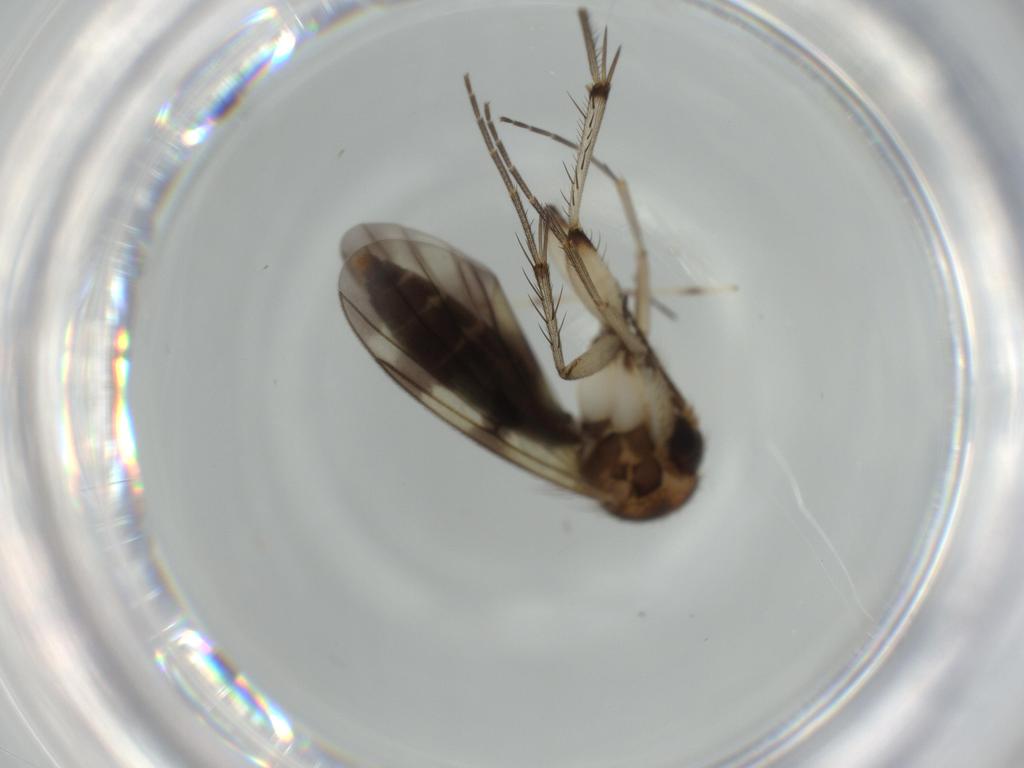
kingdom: Animalia
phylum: Arthropoda
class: Insecta
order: Diptera
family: Mycetophilidae
